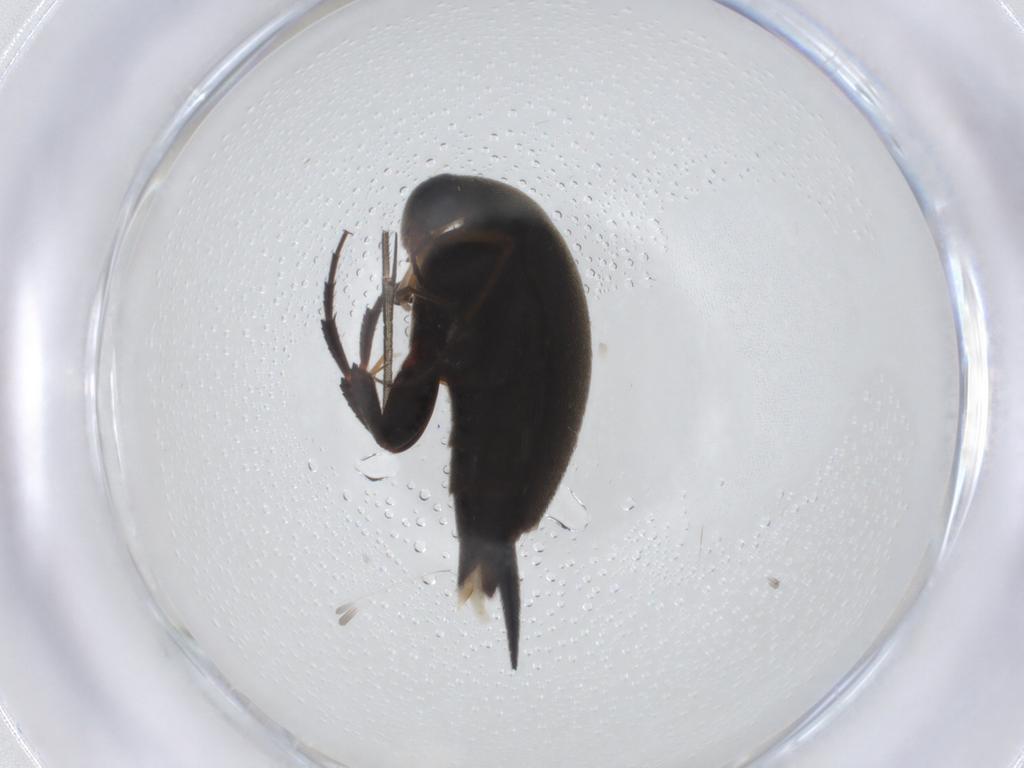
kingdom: Animalia
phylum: Arthropoda
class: Insecta
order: Coleoptera
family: Mordellidae
